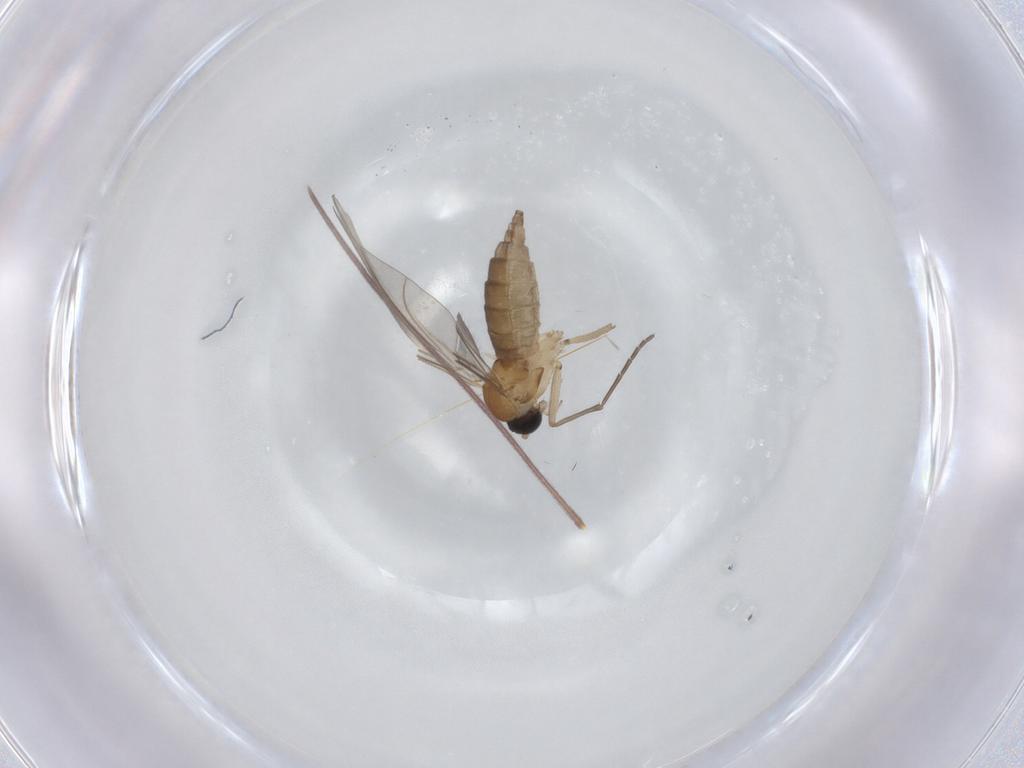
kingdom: Animalia
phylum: Arthropoda
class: Insecta
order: Diptera
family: Sciaridae
